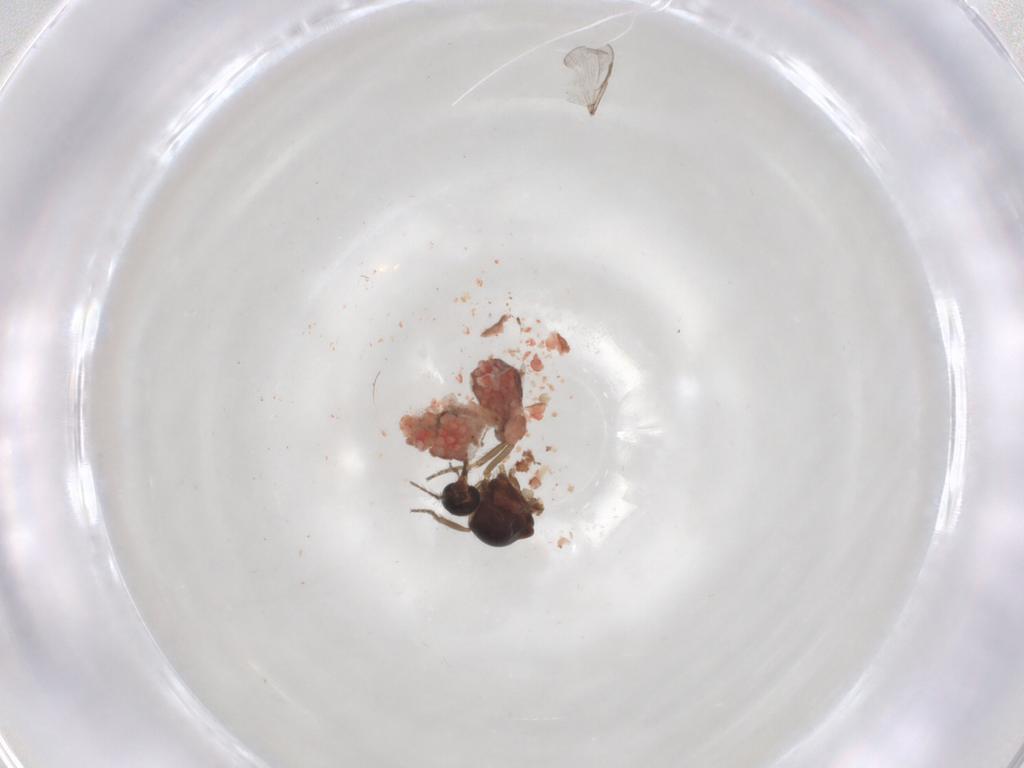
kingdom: Animalia
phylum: Arthropoda
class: Insecta
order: Diptera
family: Ceratopogonidae
